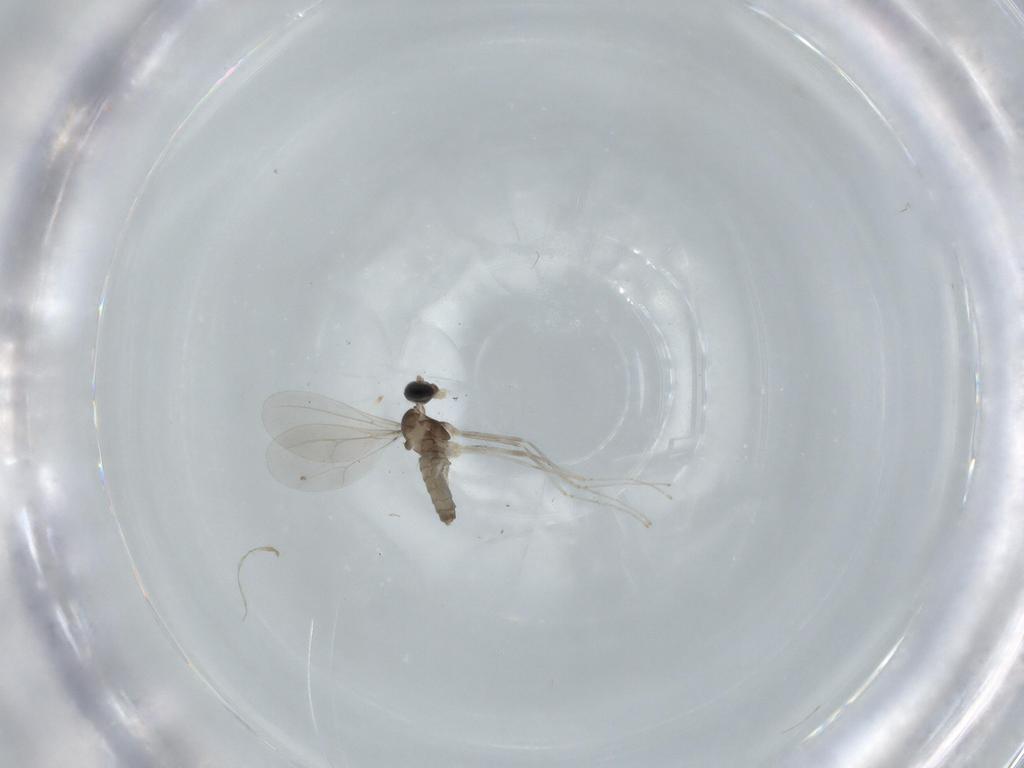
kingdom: Animalia
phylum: Arthropoda
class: Insecta
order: Diptera
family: Cecidomyiidae
